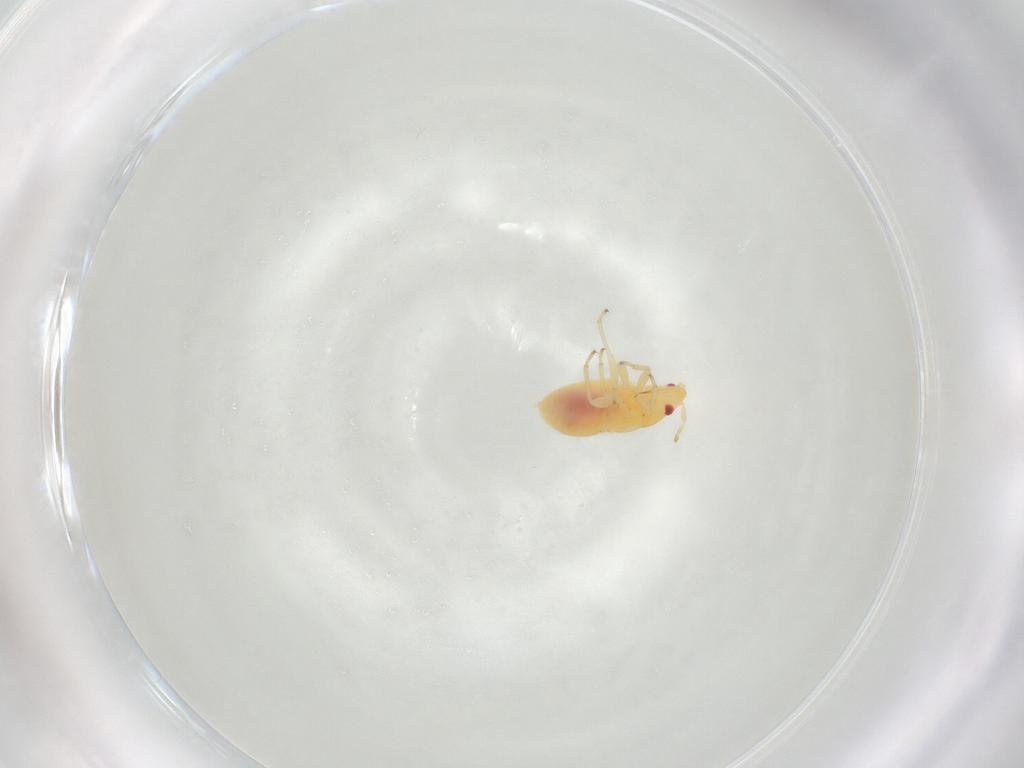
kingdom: Animalia
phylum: Arthropoda
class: Insecta
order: Hemiptera
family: Anthocoridae
